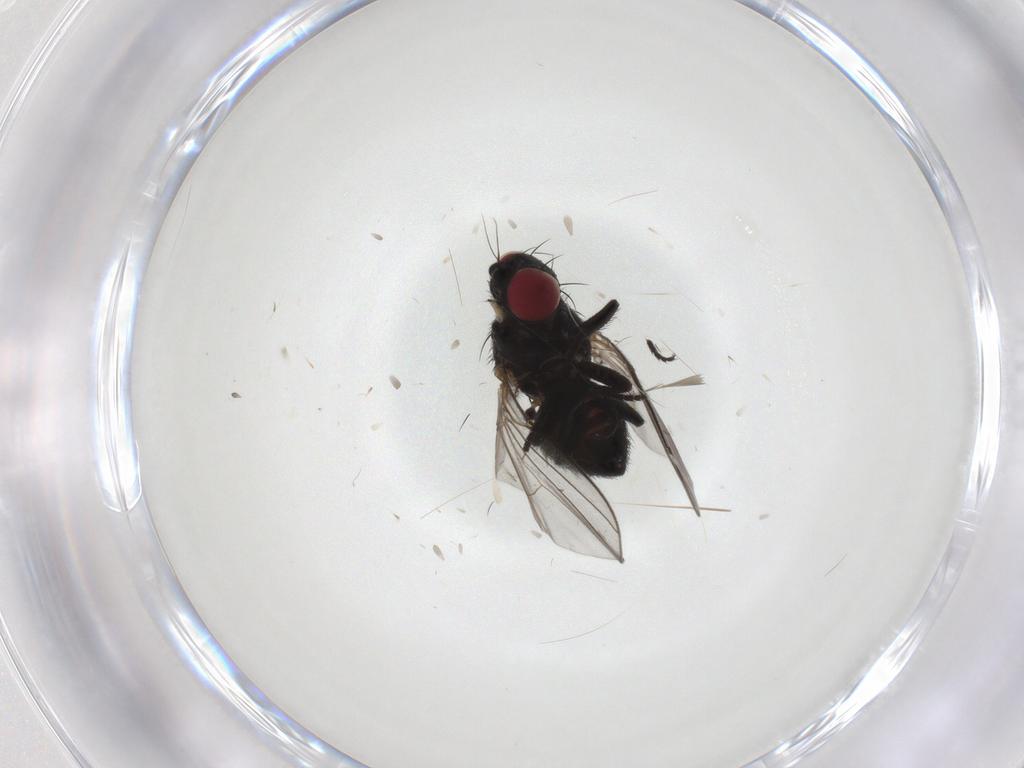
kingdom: Animalia
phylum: Arthropoda
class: Insecta
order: Diptera
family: Agromyzidae
